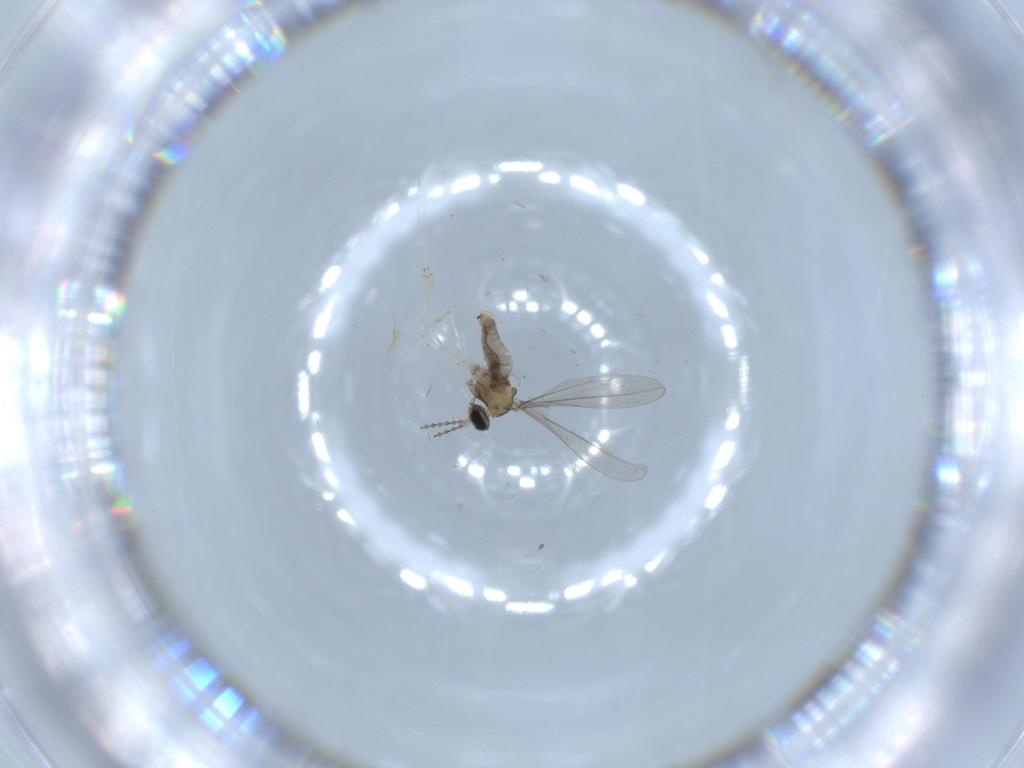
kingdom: Animalia
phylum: Arthropoda
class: Insecta
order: Diptera
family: Cecidomyiidae
